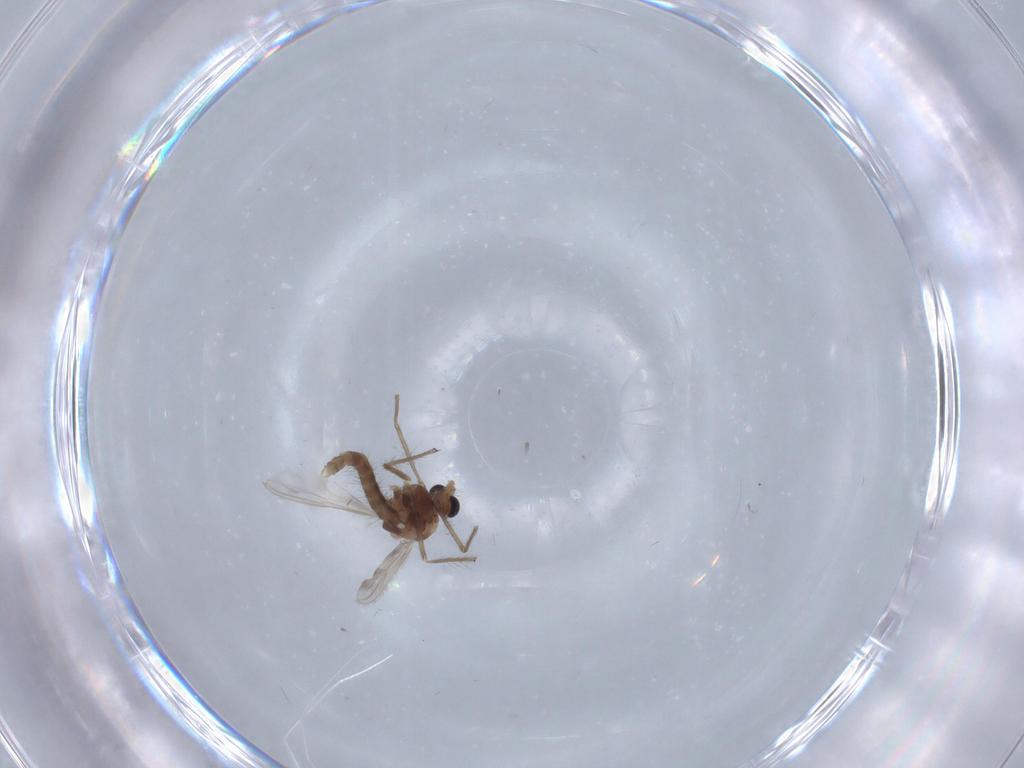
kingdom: Animalia
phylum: Arthropoda
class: Insecta
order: Diptera
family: Chironomidae
